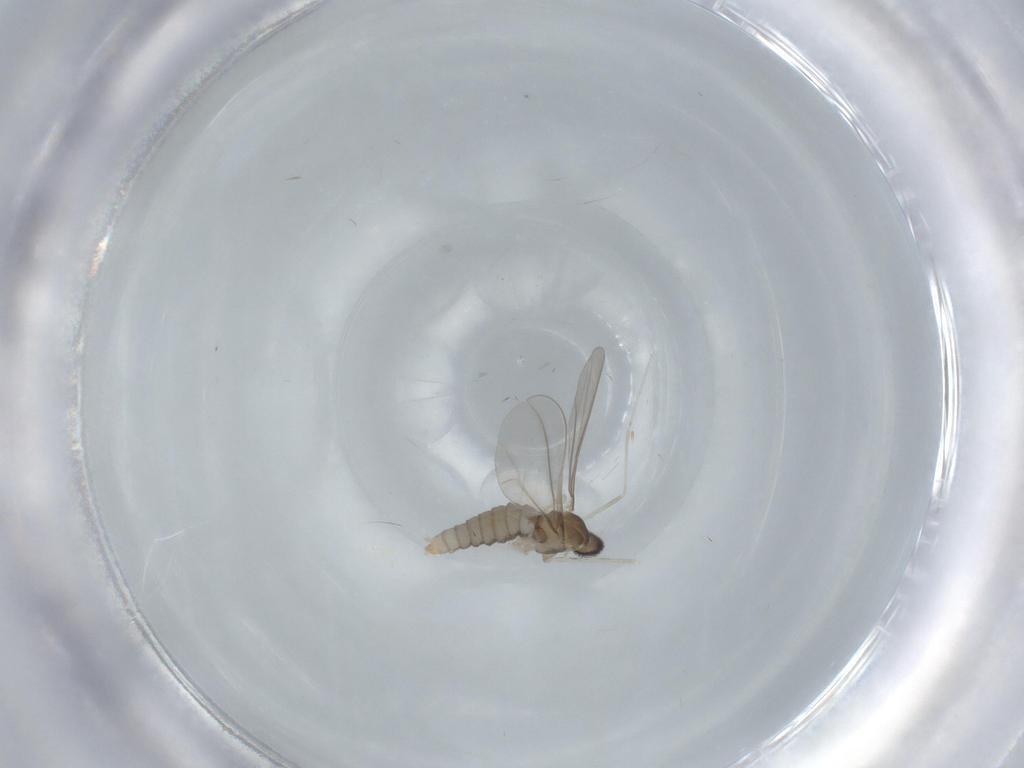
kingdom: Animalia
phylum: Arthropoda
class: Insecta
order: Diptera
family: Cecidomyiidae
